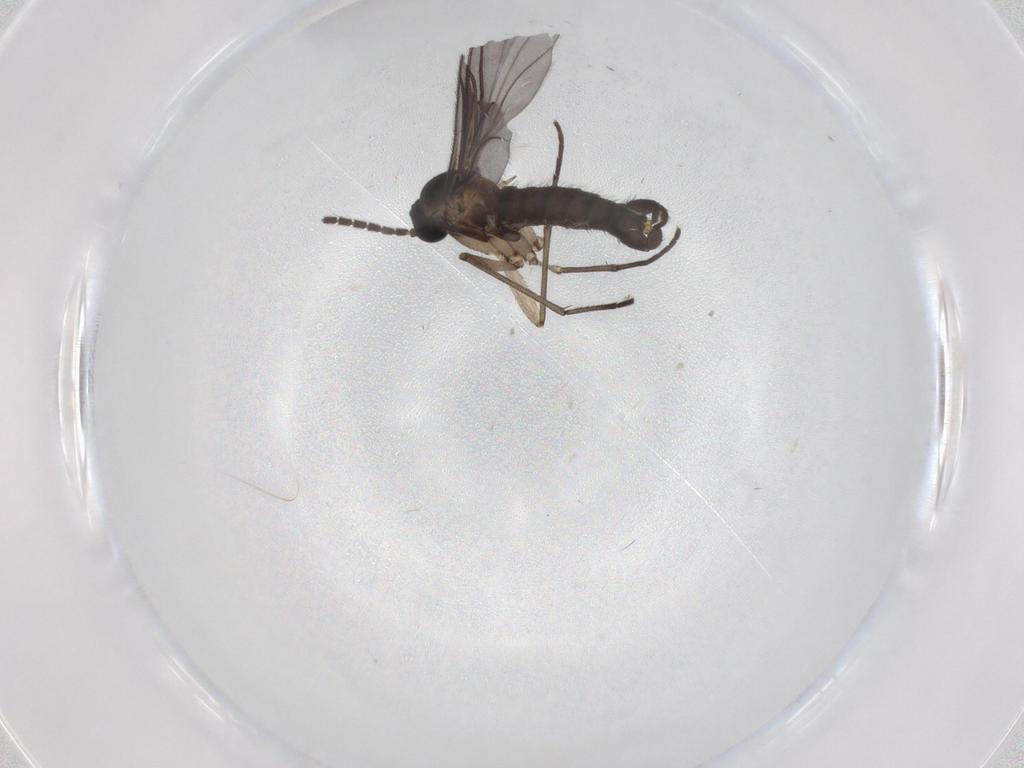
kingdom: Animalia
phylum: Arthropoda
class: Insecta
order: Diptera
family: Sciaridae
